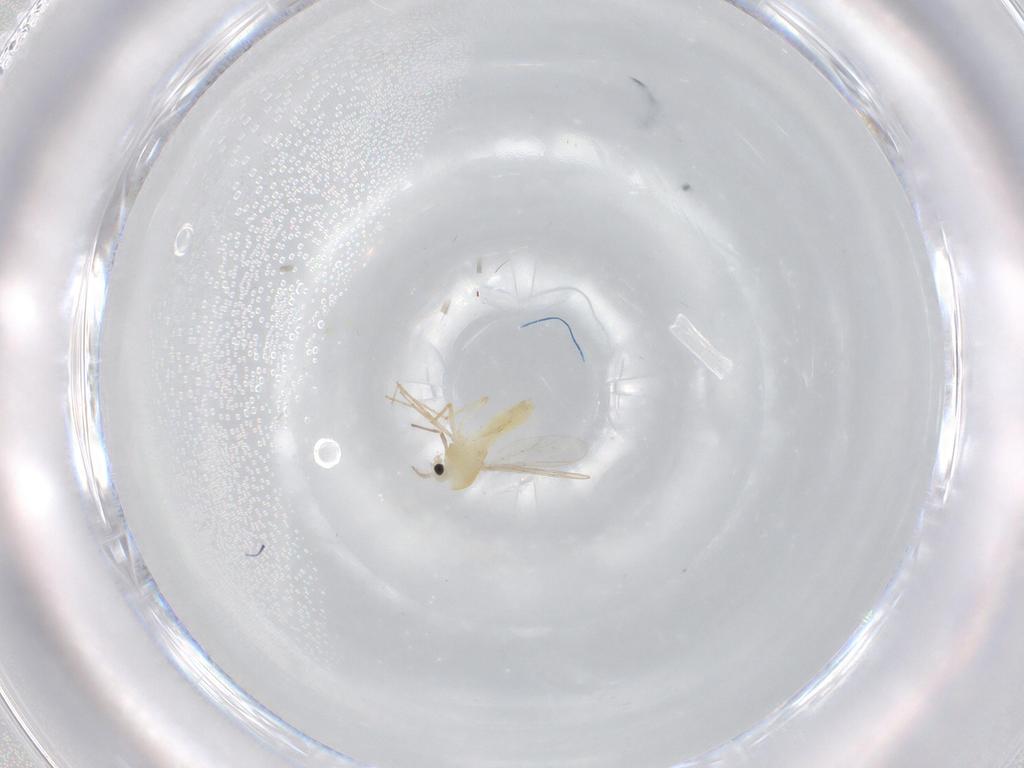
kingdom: Animalia
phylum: Arthropoda
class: Insecta
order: Diptera
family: Chironomidae
